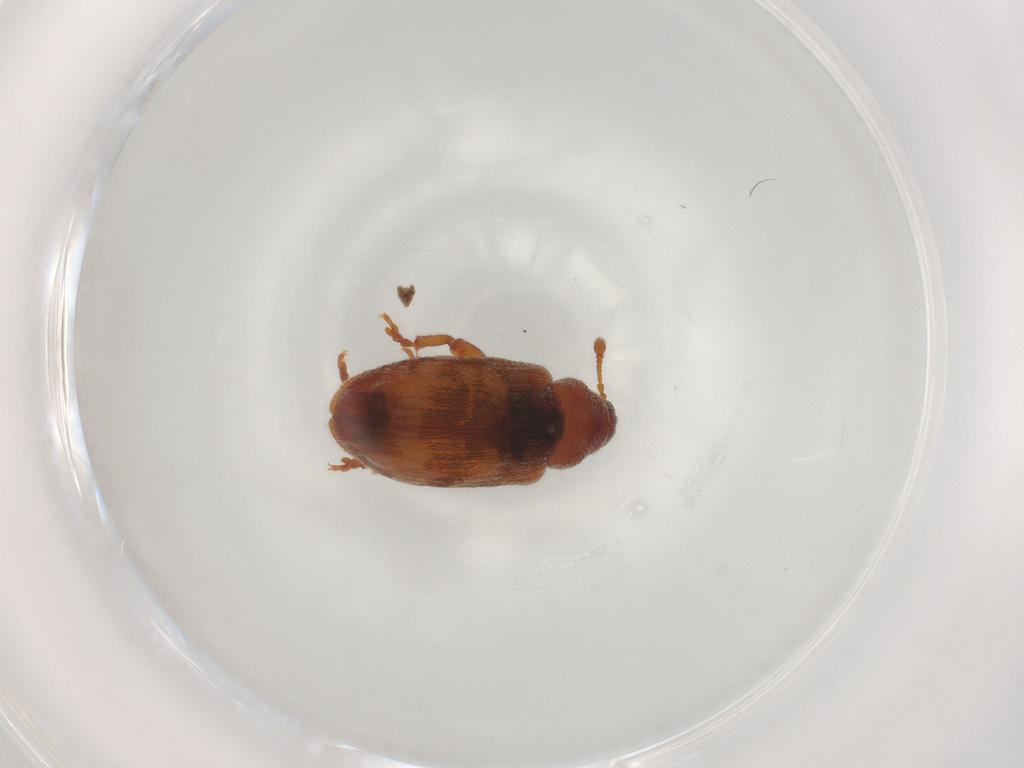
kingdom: Animalia
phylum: Arthropoda
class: Insecta
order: Coleoptera
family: Curculionidae
